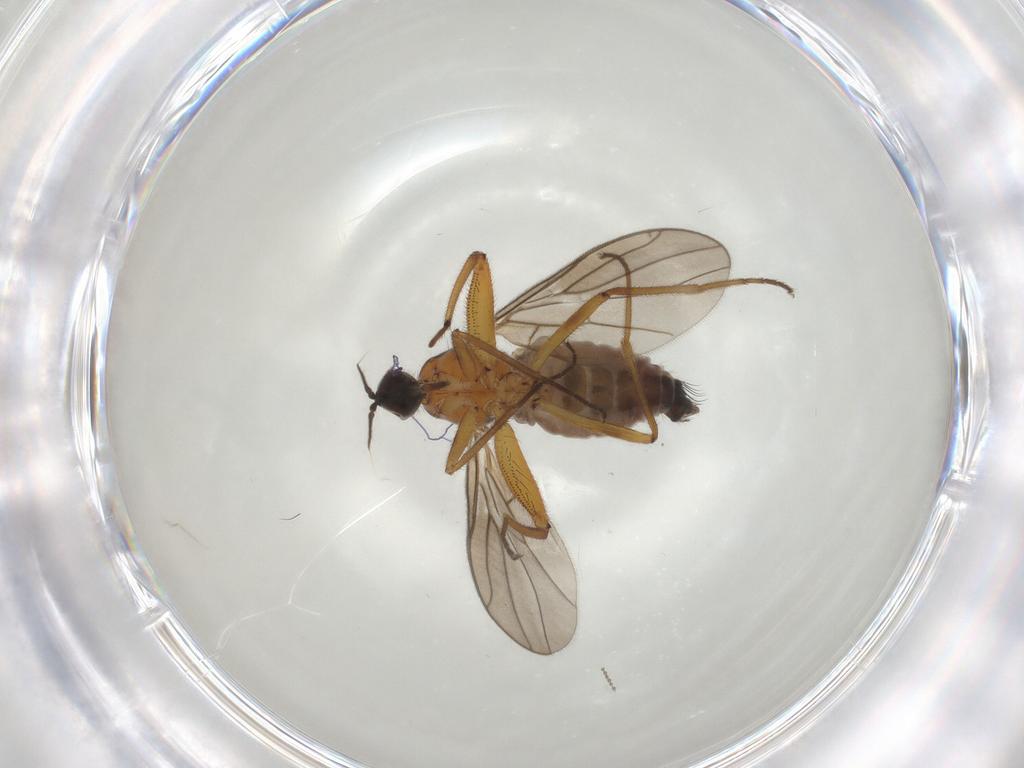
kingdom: Animalia
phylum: Arthropoda
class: Insecta
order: Diptera
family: Hybotidae
